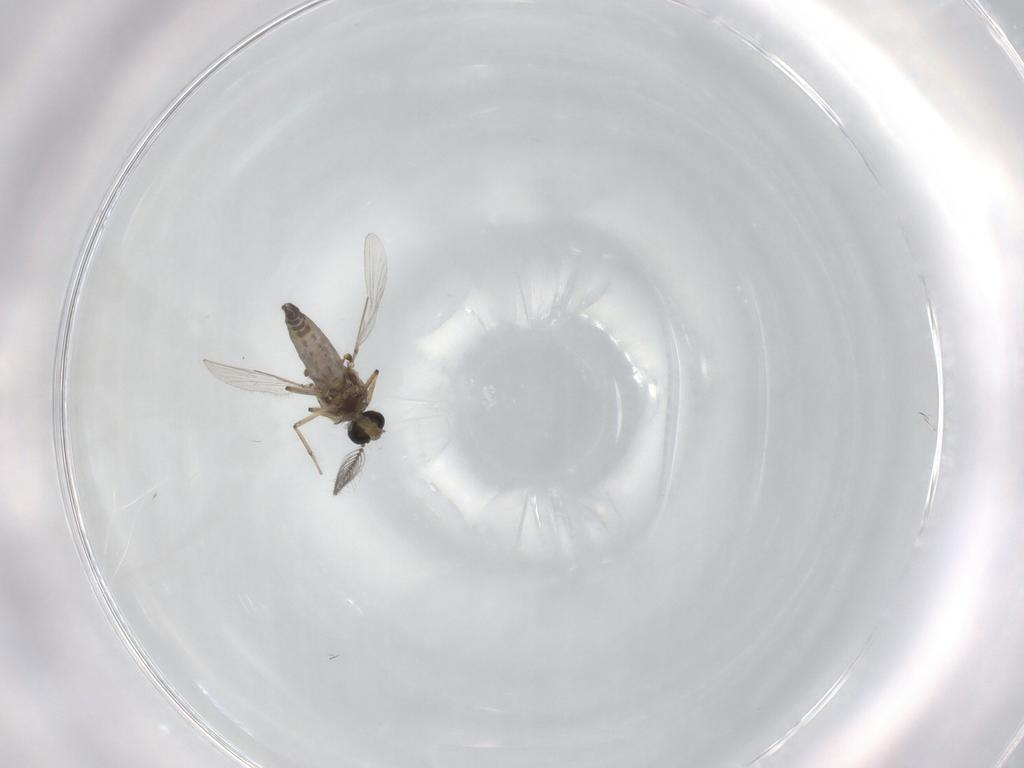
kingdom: Animalia
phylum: Arthropoda
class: Insecta
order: Diptera
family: Ceratopogonidae
